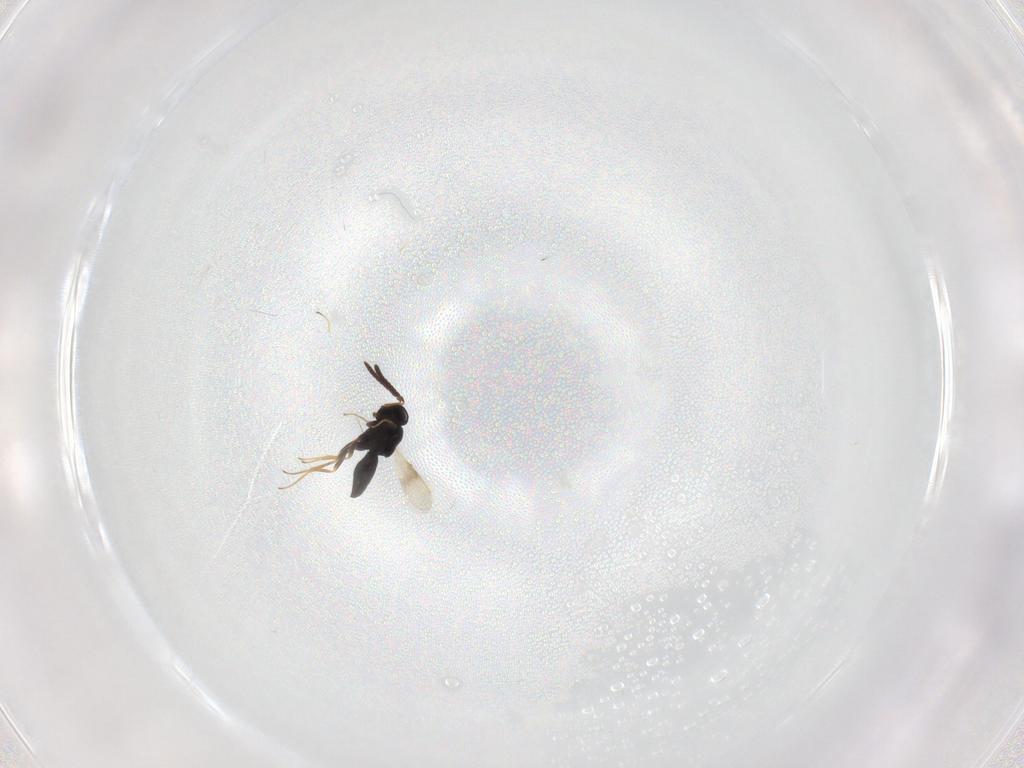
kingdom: Animalia
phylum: Arthropoda
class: Insecta
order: Hymenoptera
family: Scelionidae
